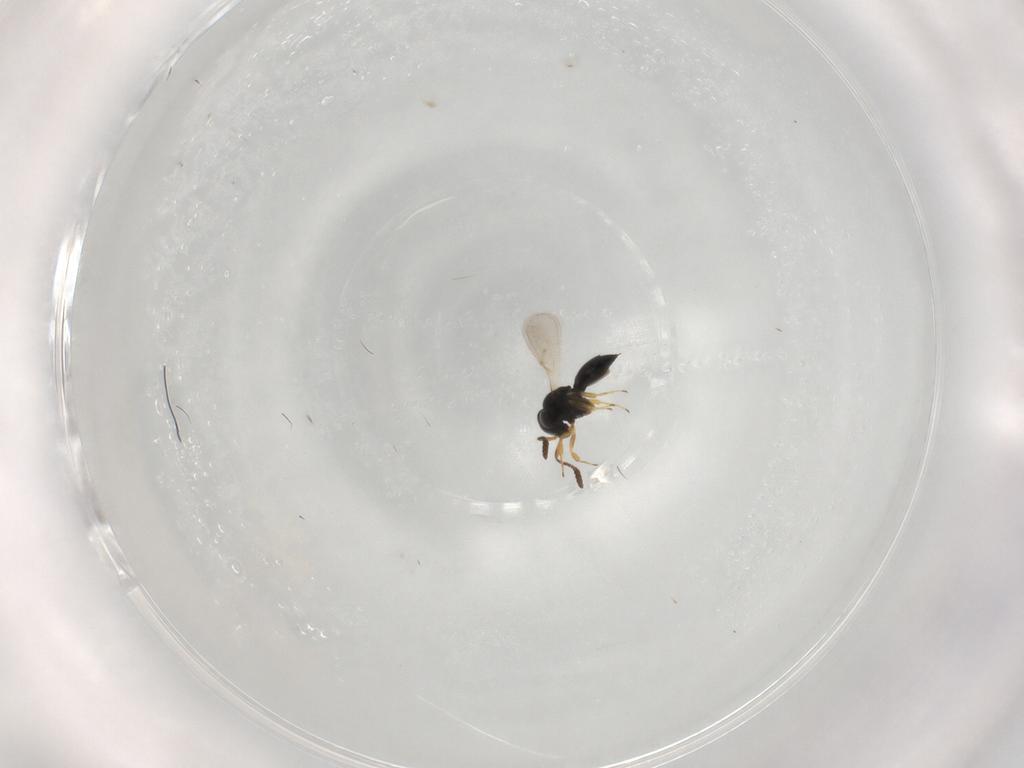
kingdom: Animalia
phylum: Arthropoda
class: Insecta
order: Hymenoptera
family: Scelionidae
